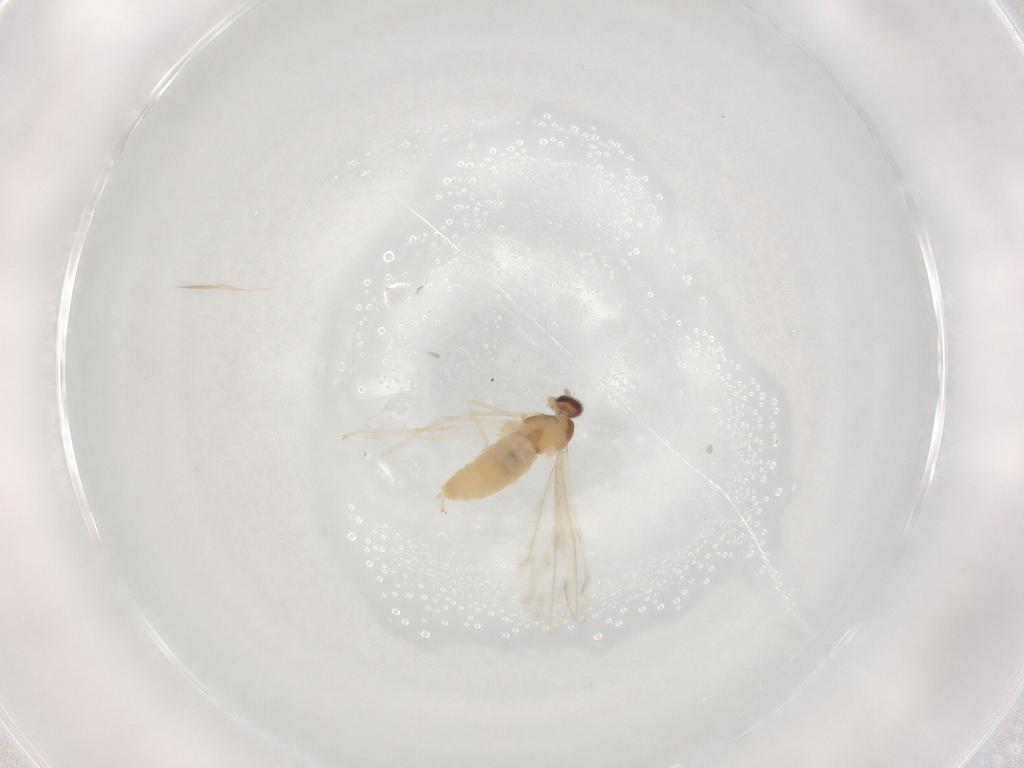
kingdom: Animalia
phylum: Arthropoda
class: Insecta
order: Diptera
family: Cecidomyiidae
